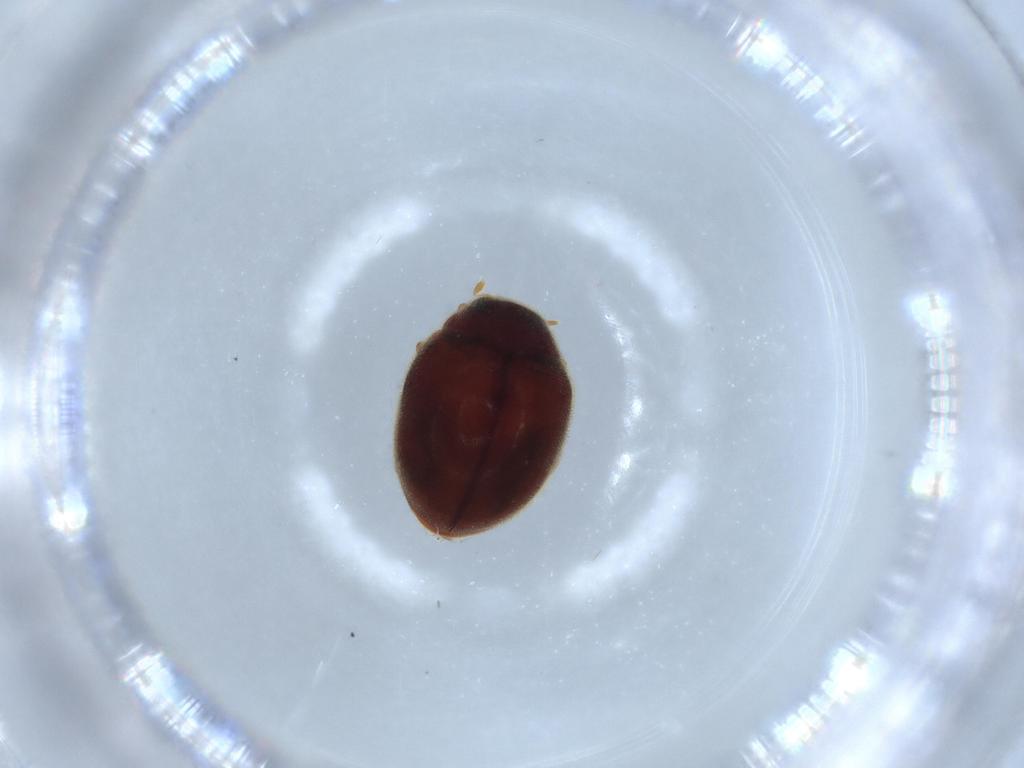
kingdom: Animalia
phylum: Arthropoda
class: Insecta
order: Coleoptera
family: Coccinellidae
